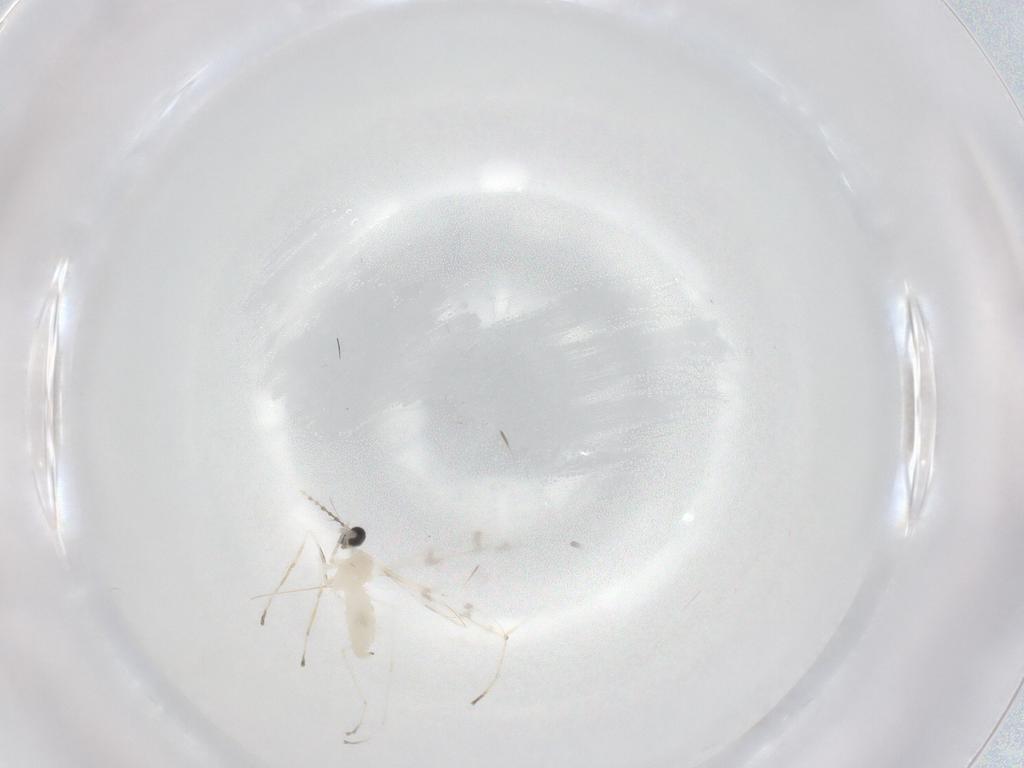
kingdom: Animalia
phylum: Arthropoda
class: Insecta
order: Diptera
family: Cecidomyiidae
